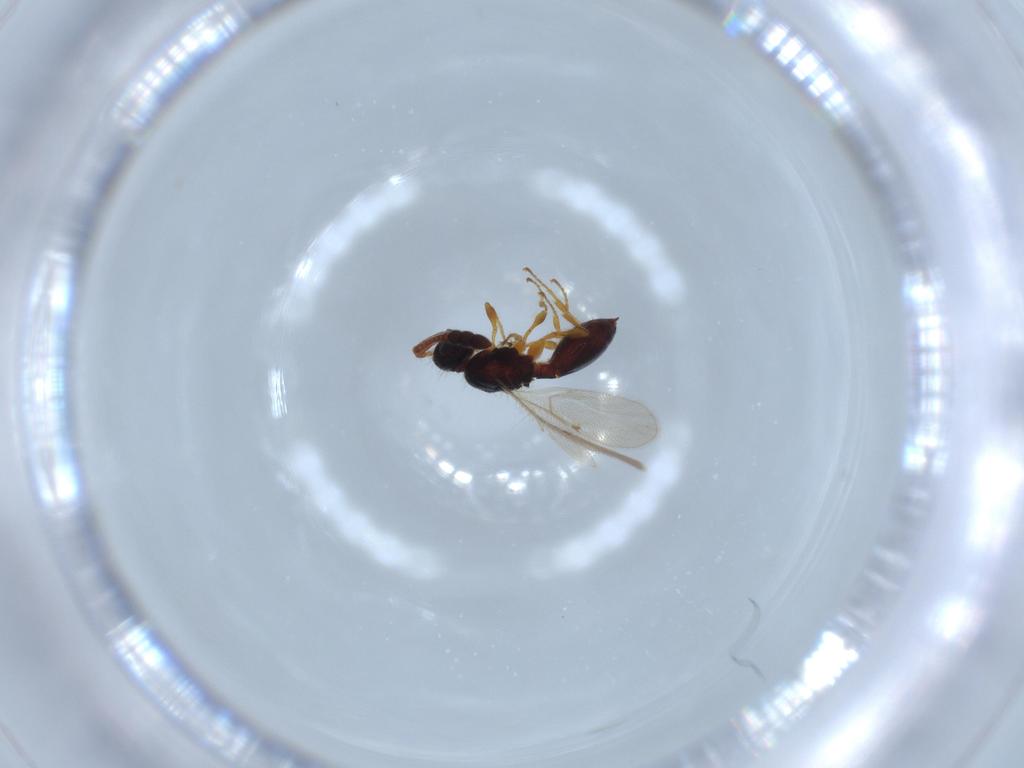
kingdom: Animalia
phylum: Arthropoda
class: Insecta
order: Hymenoptera
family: Diapriidae
